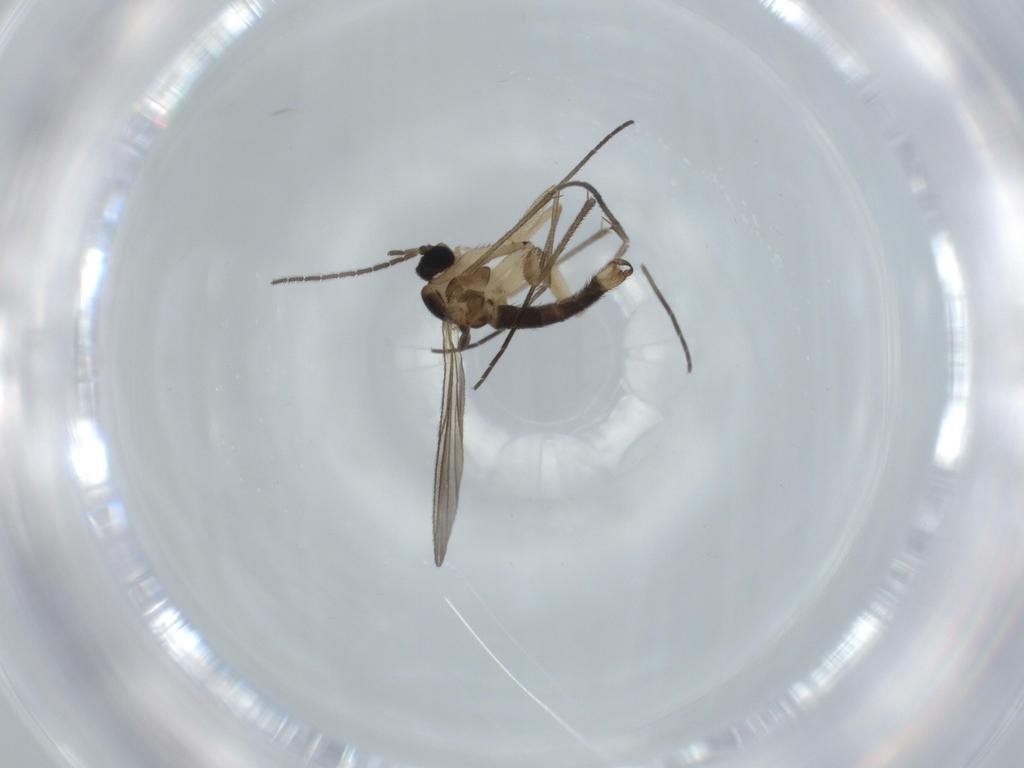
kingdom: Animalia
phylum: Arthropoda
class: Insecta
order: Diptera
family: Sciaridae
